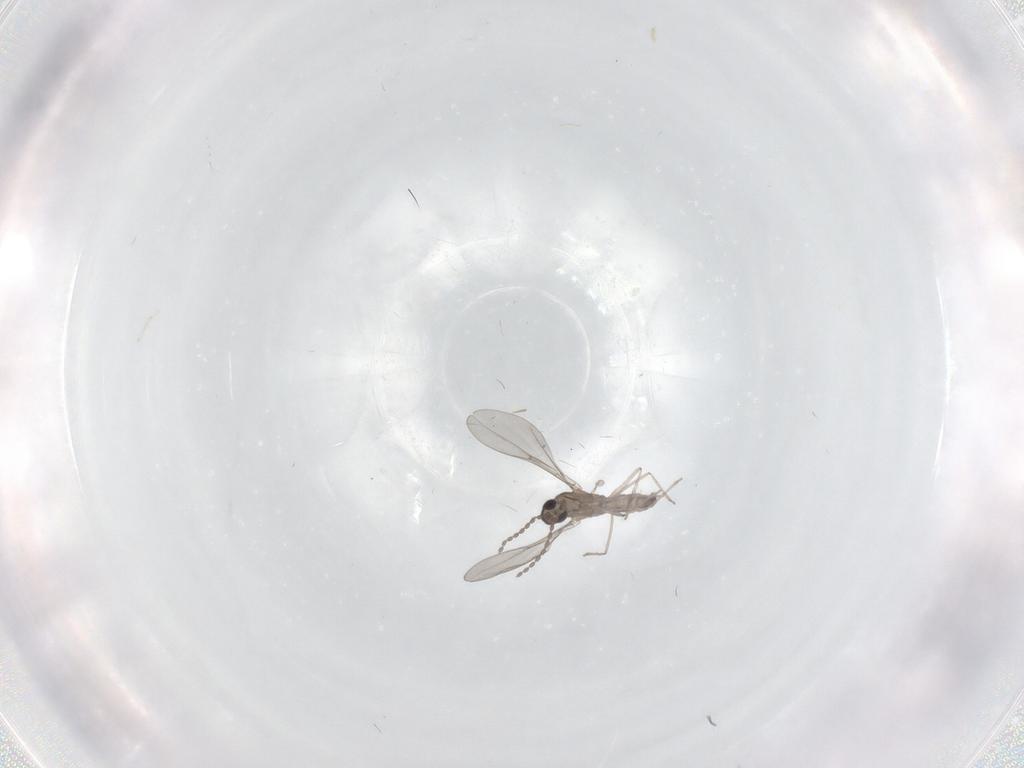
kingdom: Animalia
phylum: Arthropoda
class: Insecta
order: Diptera
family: Cecidomyiidae
